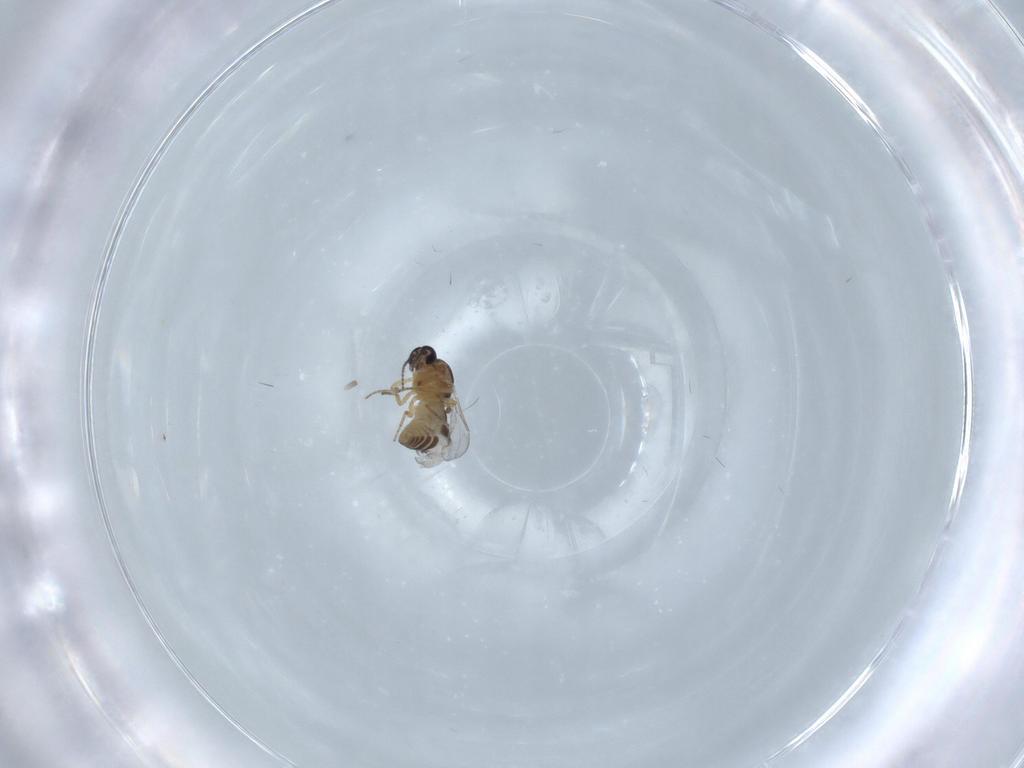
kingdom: Animalia
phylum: Arthropoda
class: Insecta
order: Diptera
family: Ceratopogonidae
